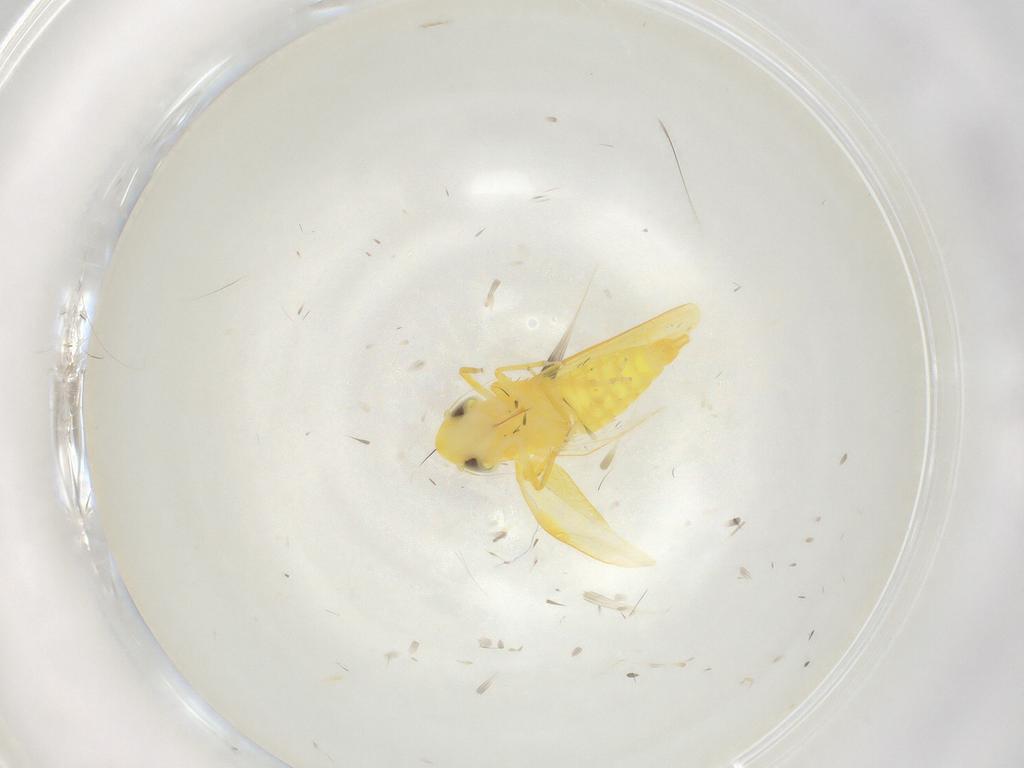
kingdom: Animalia
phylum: Arthropoda
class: Insecta
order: Hemiptera
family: Cicadellidae
